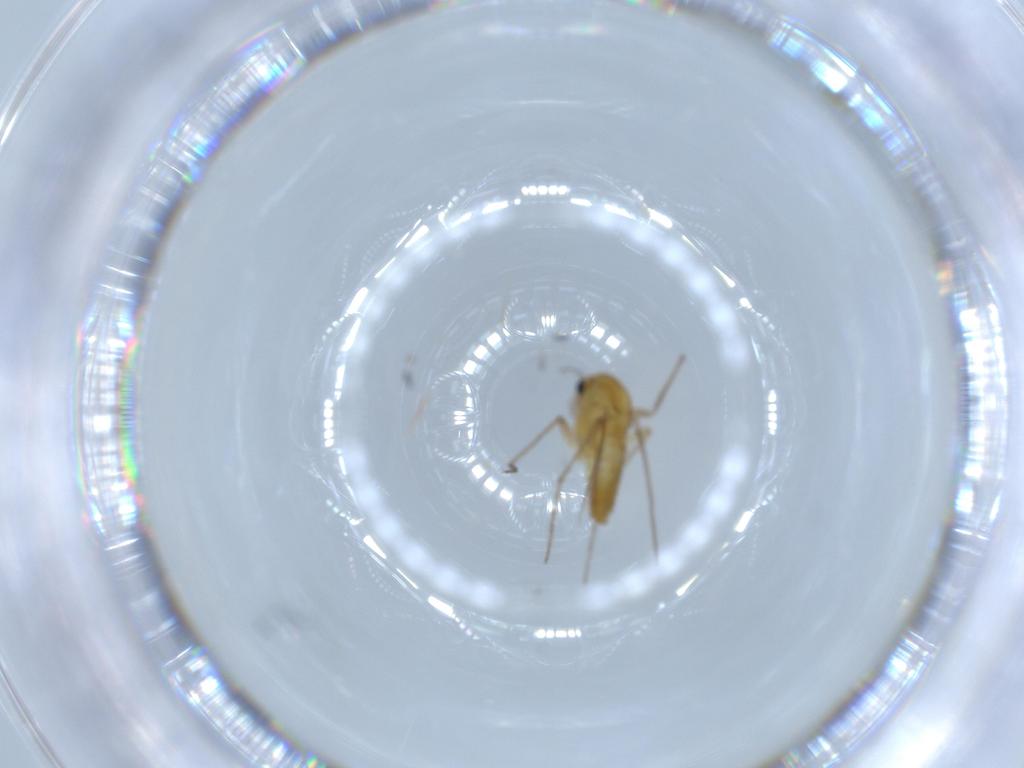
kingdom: Animalia
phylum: Arthropoda
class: Insecta
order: Diptera
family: Chironomidae
